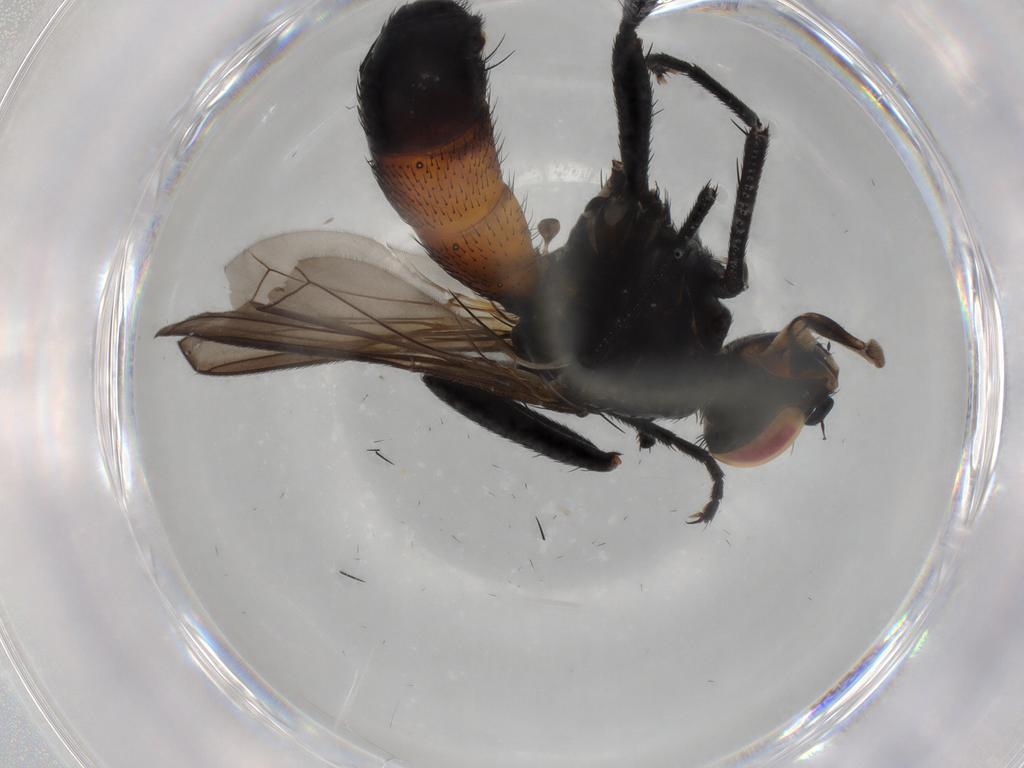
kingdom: Animalia
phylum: Arthropoda
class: Insecta
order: Diptera
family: Tachinidae
